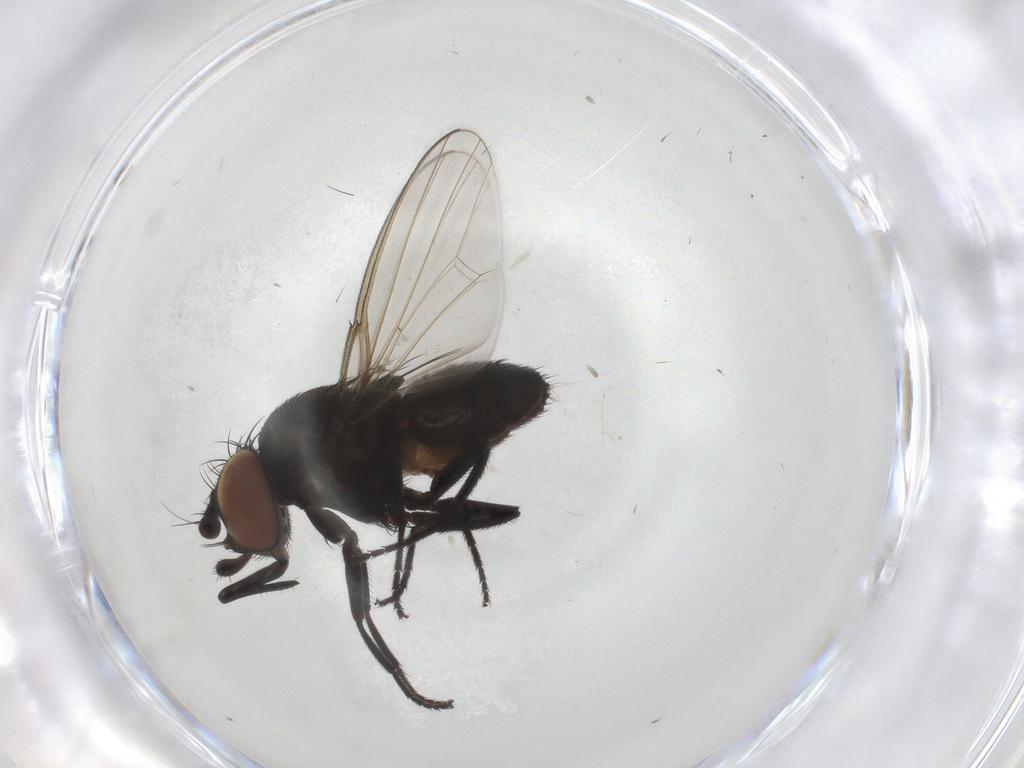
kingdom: Animalia
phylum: Arthropoda
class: Insecta
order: Diptera
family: Milichiidae
